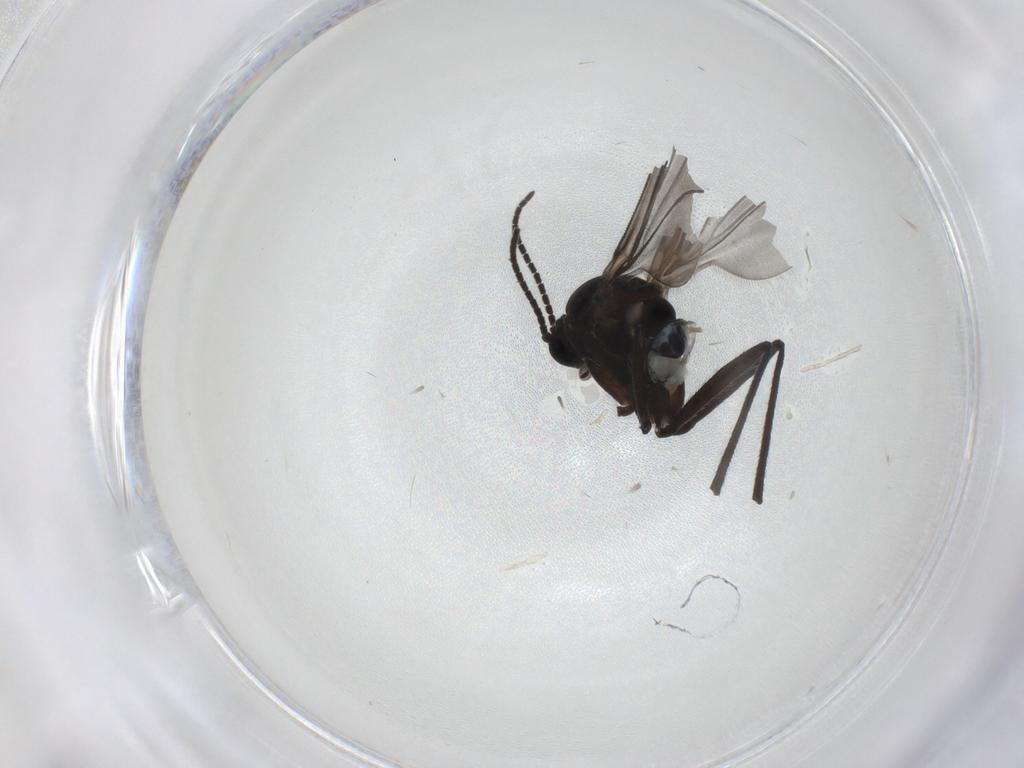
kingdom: Animalia
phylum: Arthropoda
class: Insecta
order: Diptera
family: Sciaridae
